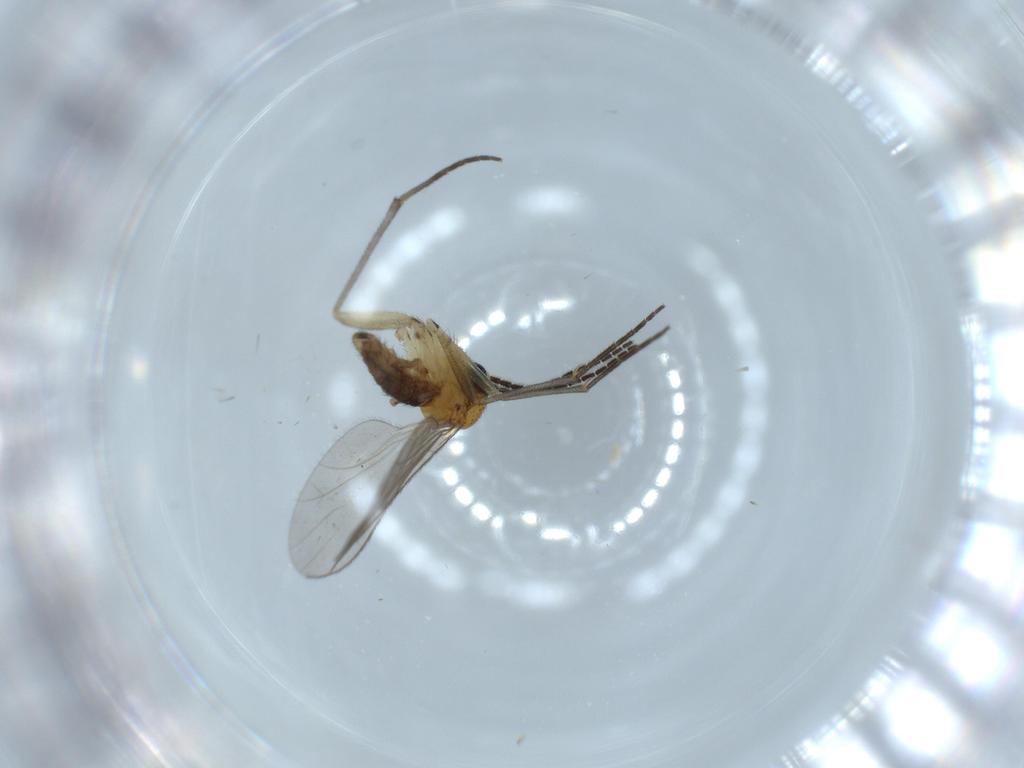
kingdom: Animalia
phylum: Arthropoda
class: Insecta
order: Diptera
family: Sciaridae
